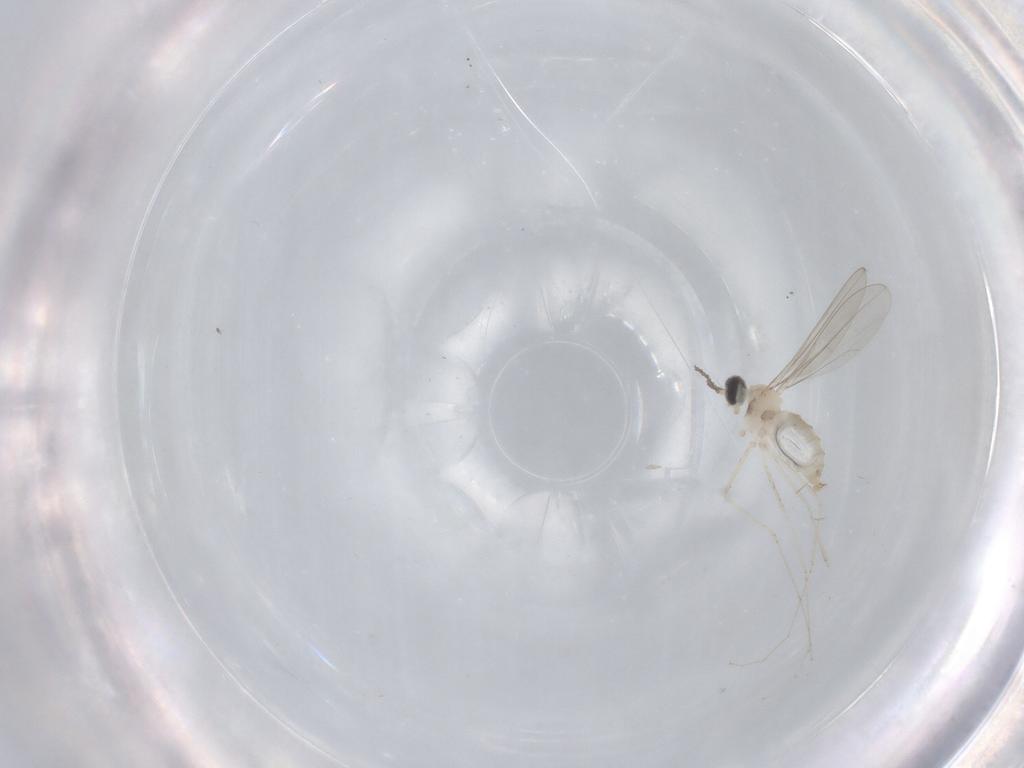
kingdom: Animalia
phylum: Arthropoda
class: Insecta
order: Diptera
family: Cecidomyiidae
